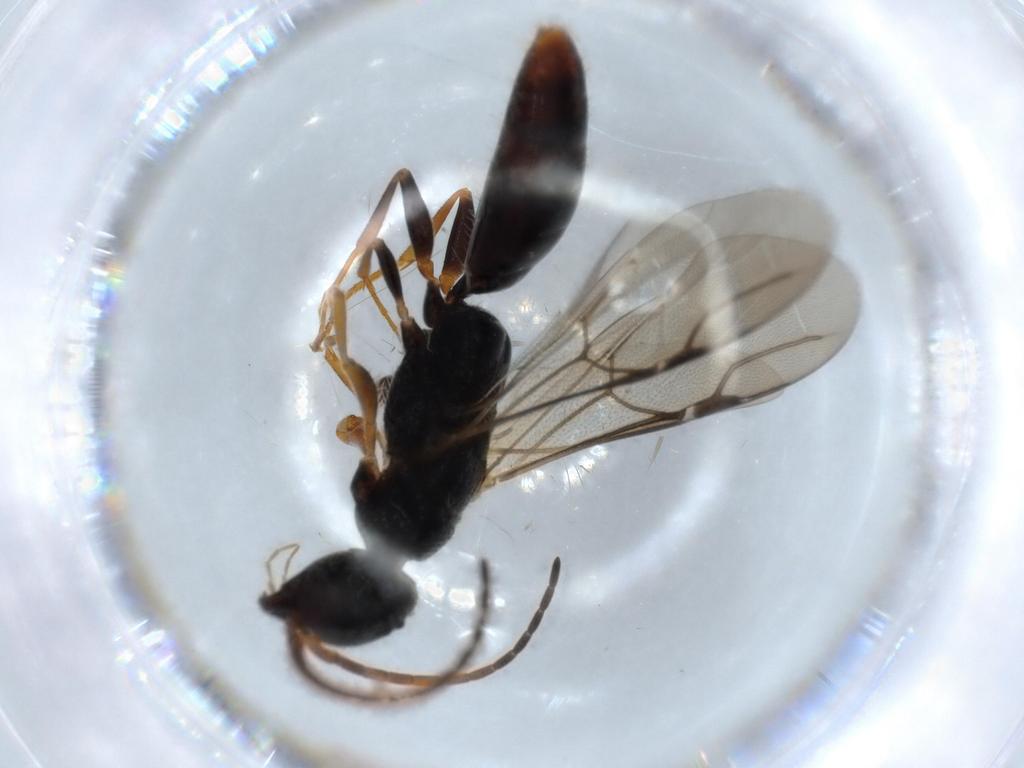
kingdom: Animalia
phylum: Arthropoda
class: Insecta
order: Hymenoptera
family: Bethylidae
